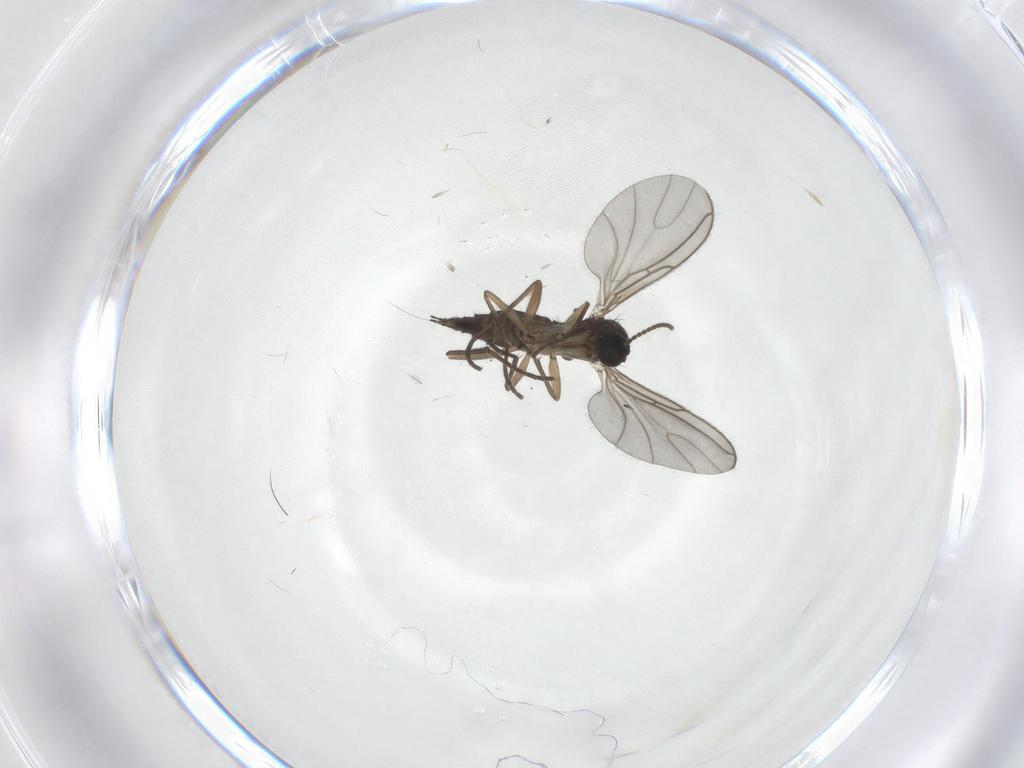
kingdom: Animalia
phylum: Arthropoda
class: Insecta
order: Diptera
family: Sciaridae
